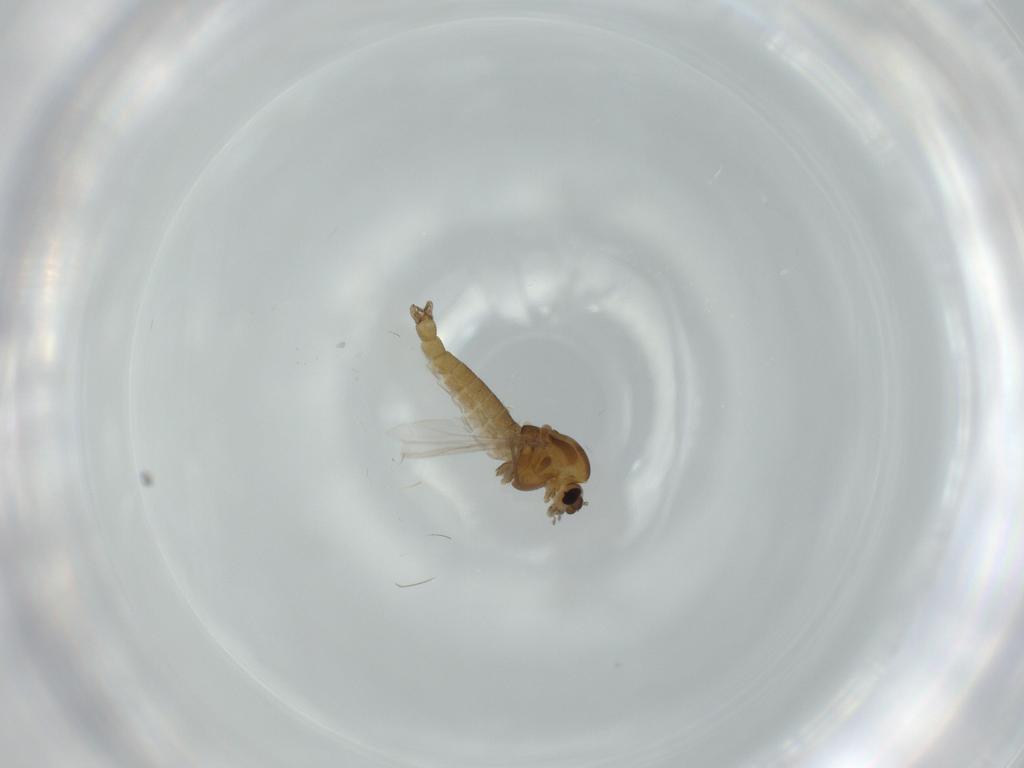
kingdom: Animalia
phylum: Arthropoda
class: Insecta
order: Diptera
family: Chironomidae
